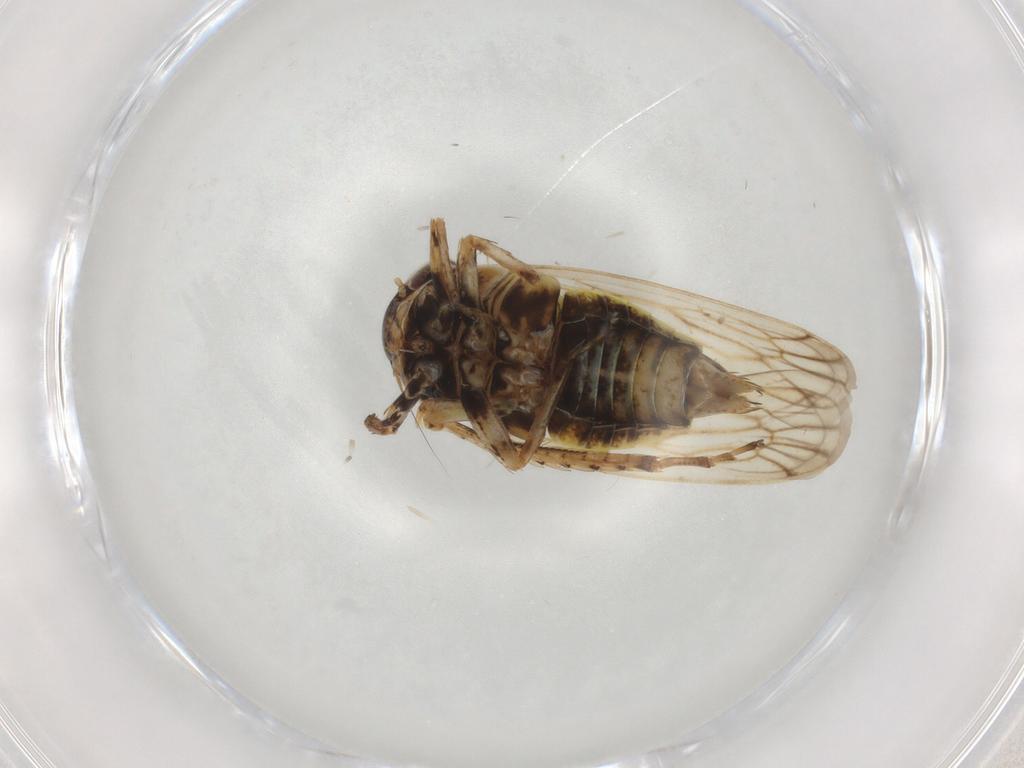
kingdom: Animalia
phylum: Arthropoda
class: Insecta
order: Hemiptera
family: Cicadellidae
